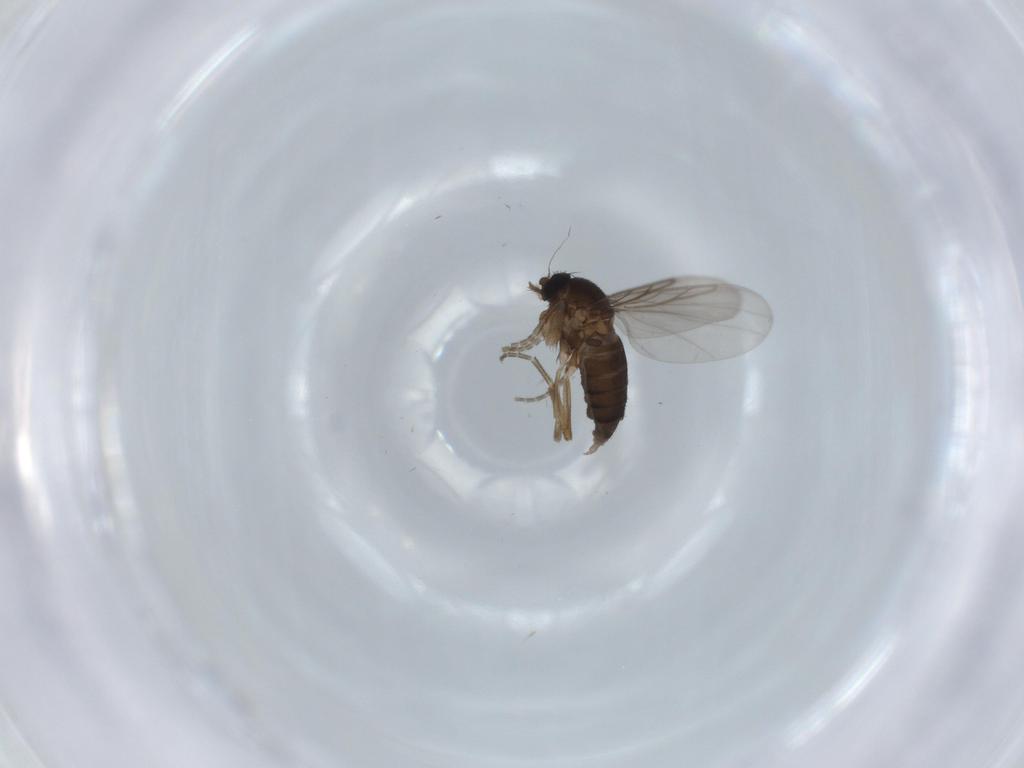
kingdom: Animalia
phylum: Arthropoda
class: Insecta
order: Diptera
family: Phoridae
